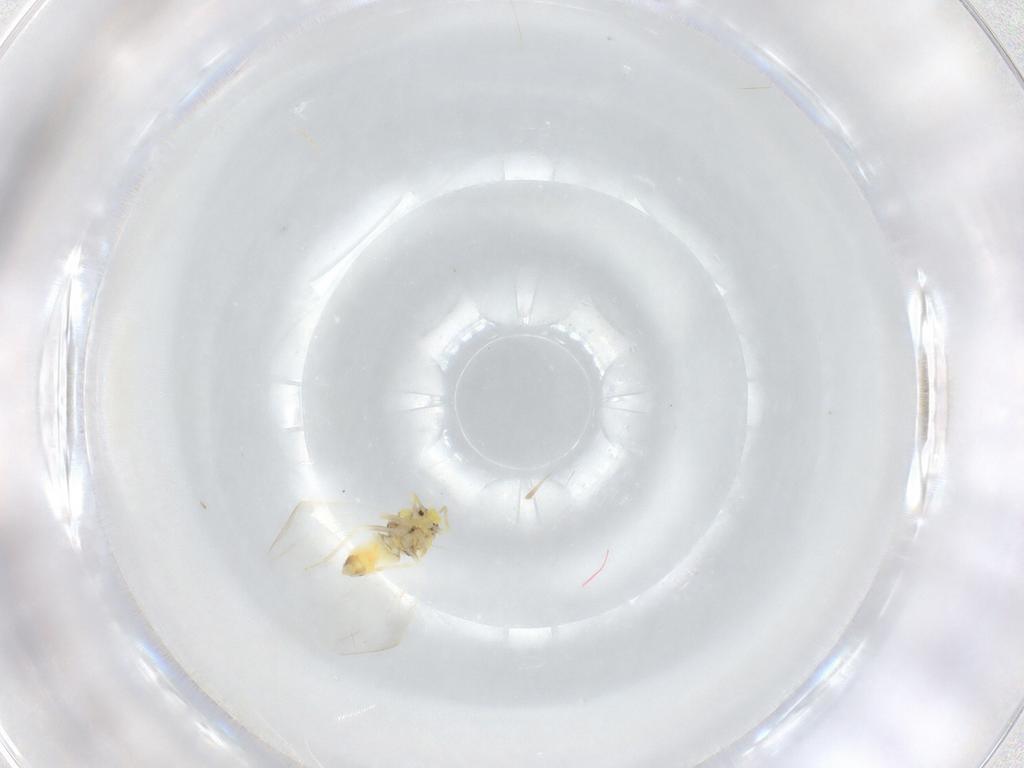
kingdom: Animalia
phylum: Arthropoda
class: Insecta
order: Hemiptera
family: Aleyrodidae
